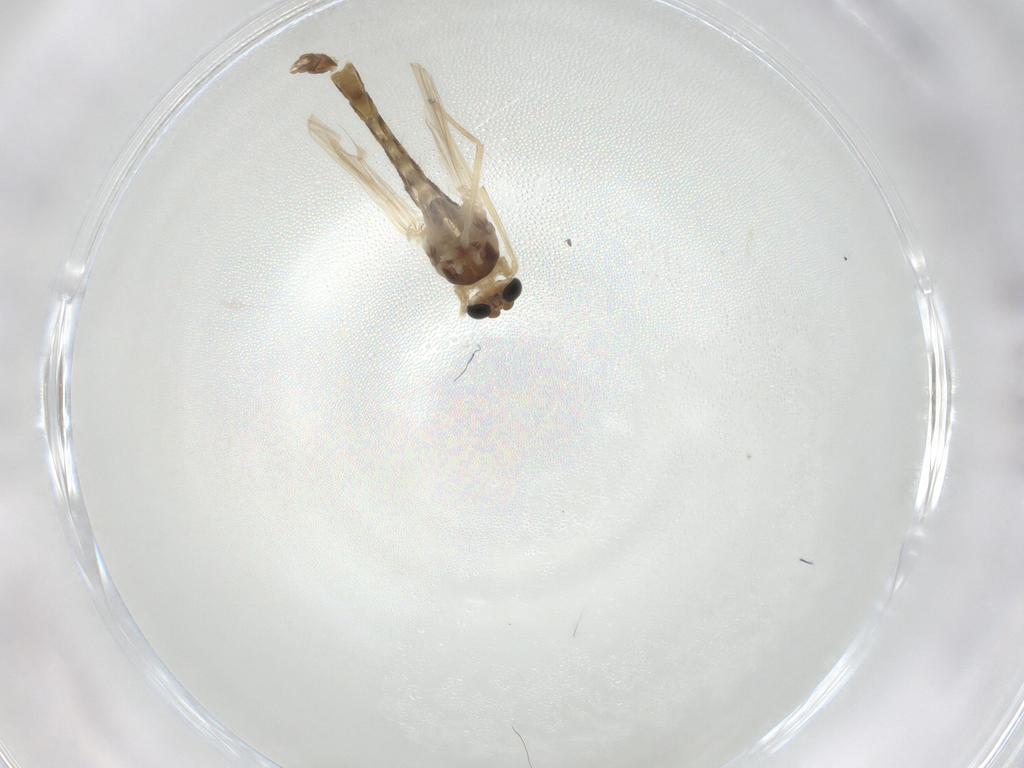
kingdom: Animalia
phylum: Arthropoda
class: Insecta
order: Diptera
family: Chironomidae
